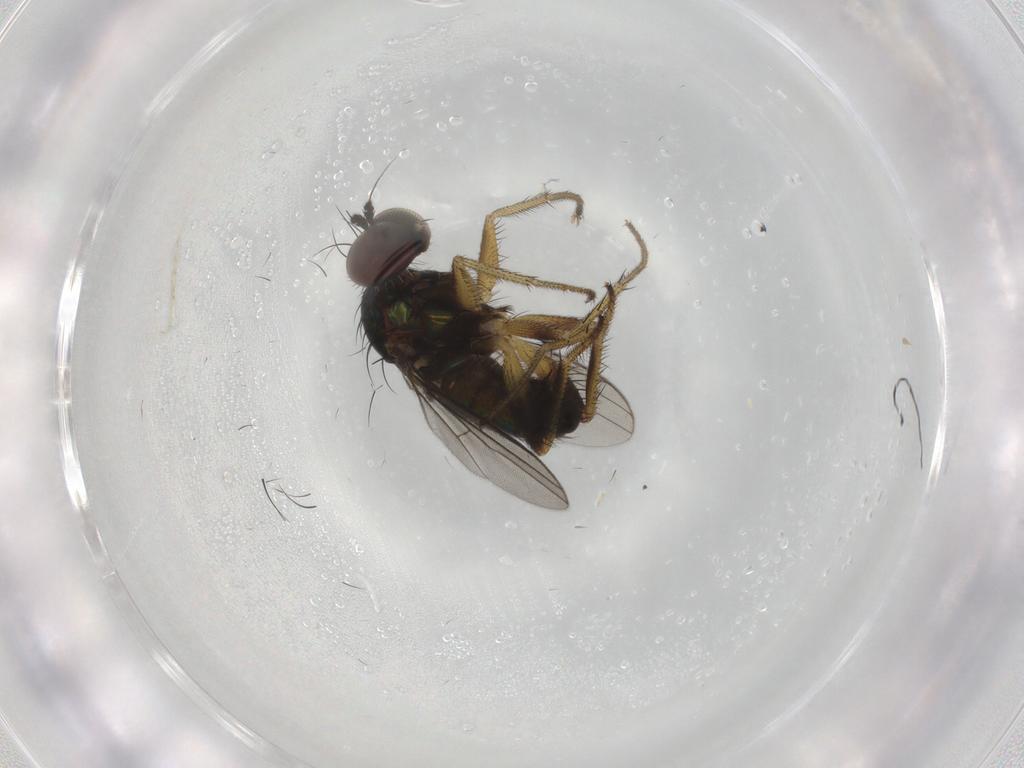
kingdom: Animalia
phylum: Arthropoda
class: Insecta
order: Diptera
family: Dolichopodidae
